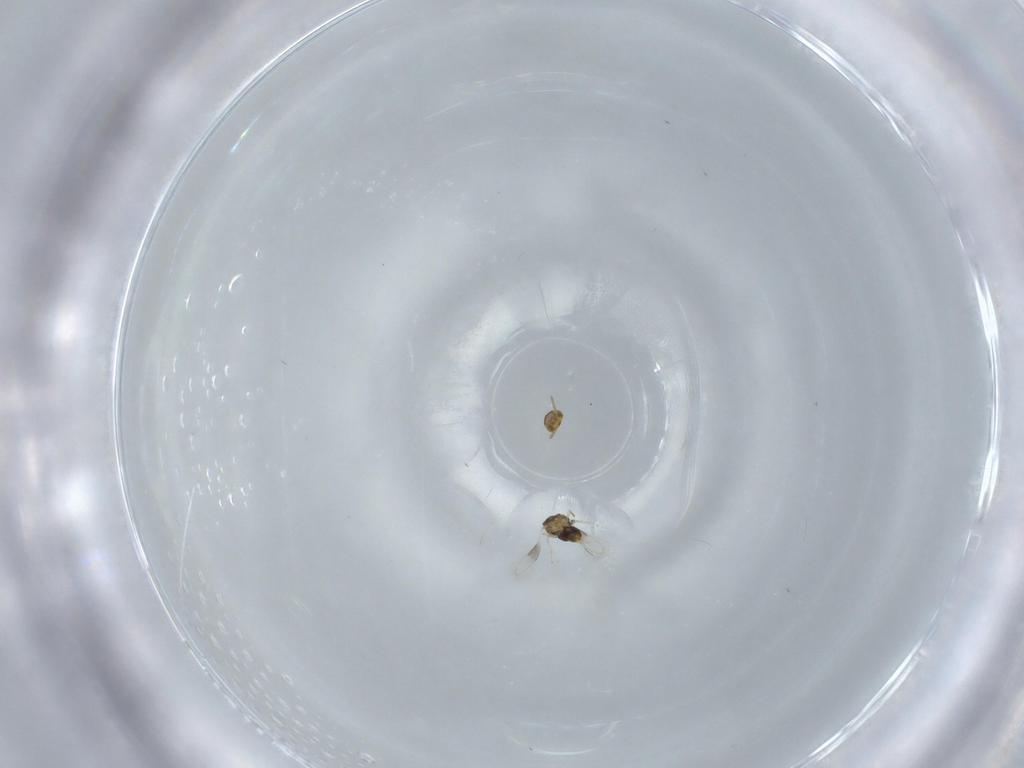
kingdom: Animalia
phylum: Arthropoda
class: Insecta
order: Hymenoptera
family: Aphelinidae
